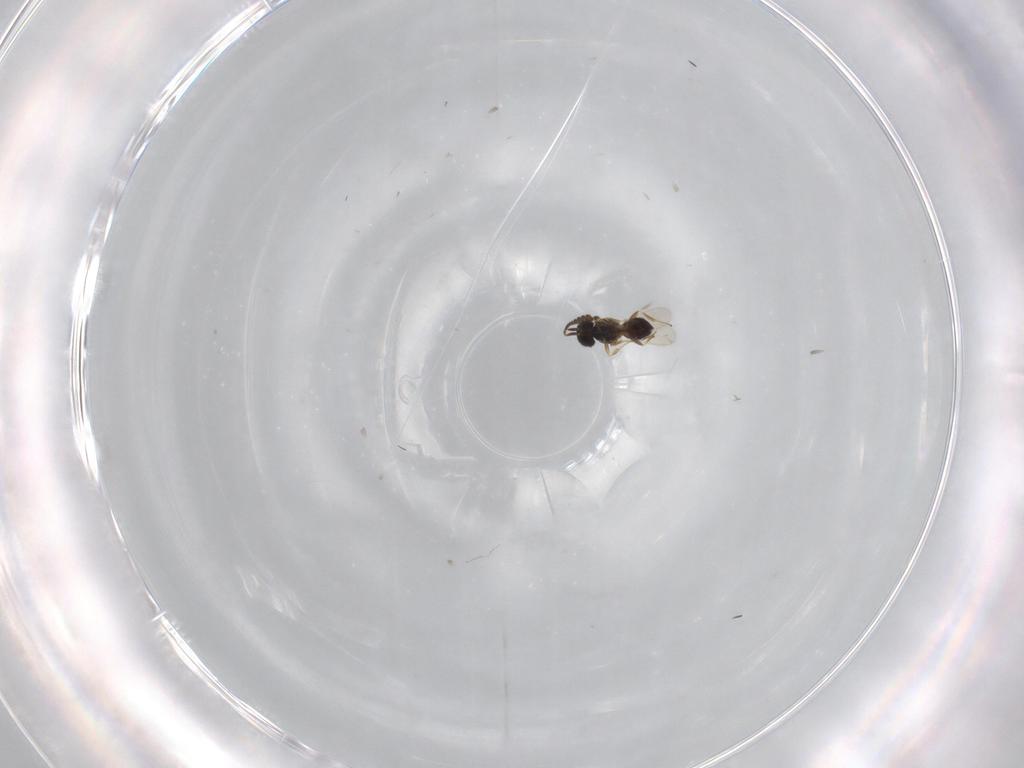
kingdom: Animalia
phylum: Arthropoda
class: Insecta
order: Hymenoptera
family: Scelionidae
